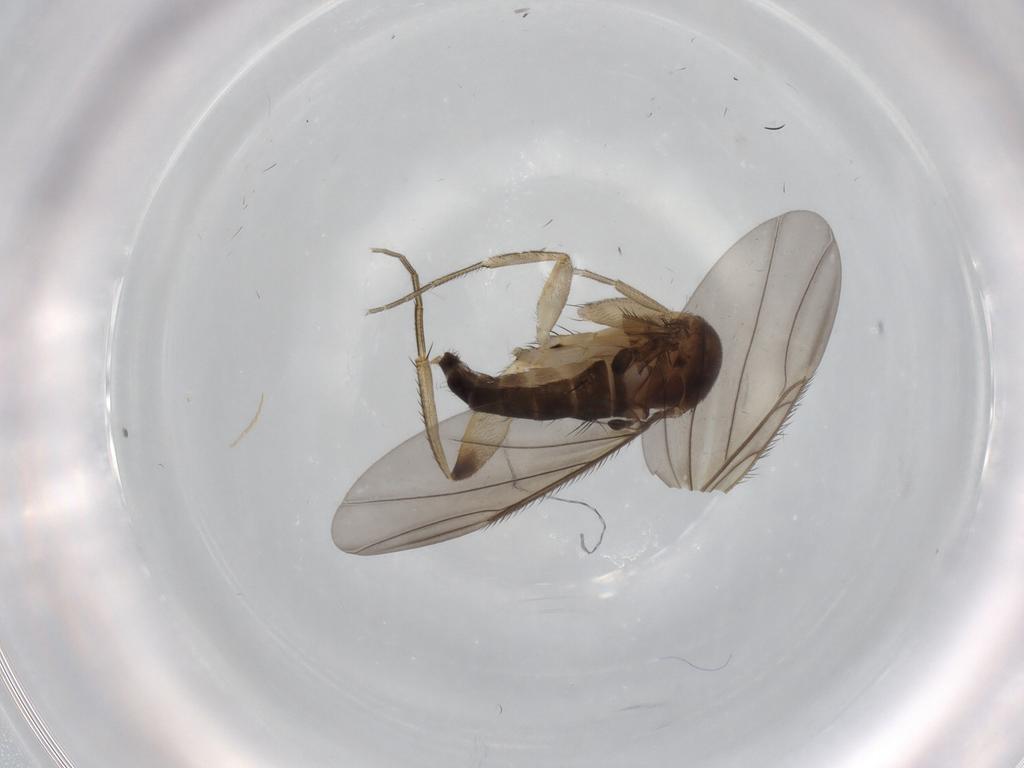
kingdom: Animalia
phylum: Arthropoda
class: Insecta
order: Diptera
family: Phoridae
